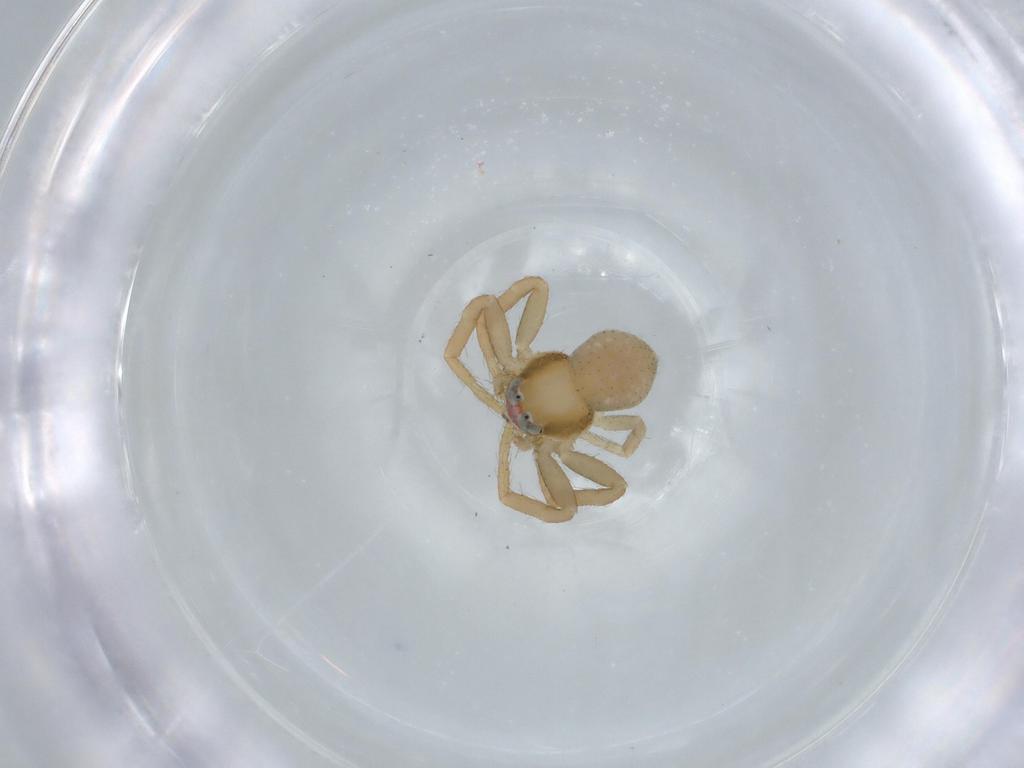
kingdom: Animalia
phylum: Arthropoda
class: Arachnida
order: Araneae
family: Thomisidae
